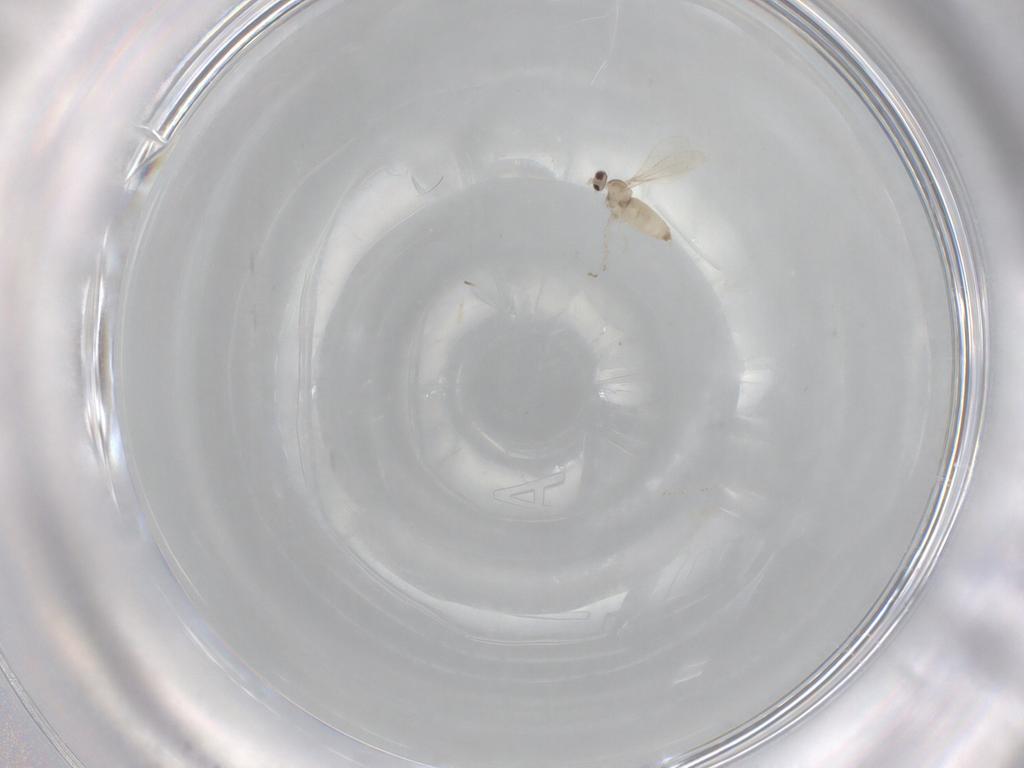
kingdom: Animalia
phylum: Arthropoda
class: Insecta
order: Diptera
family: Cecidomyiidae
